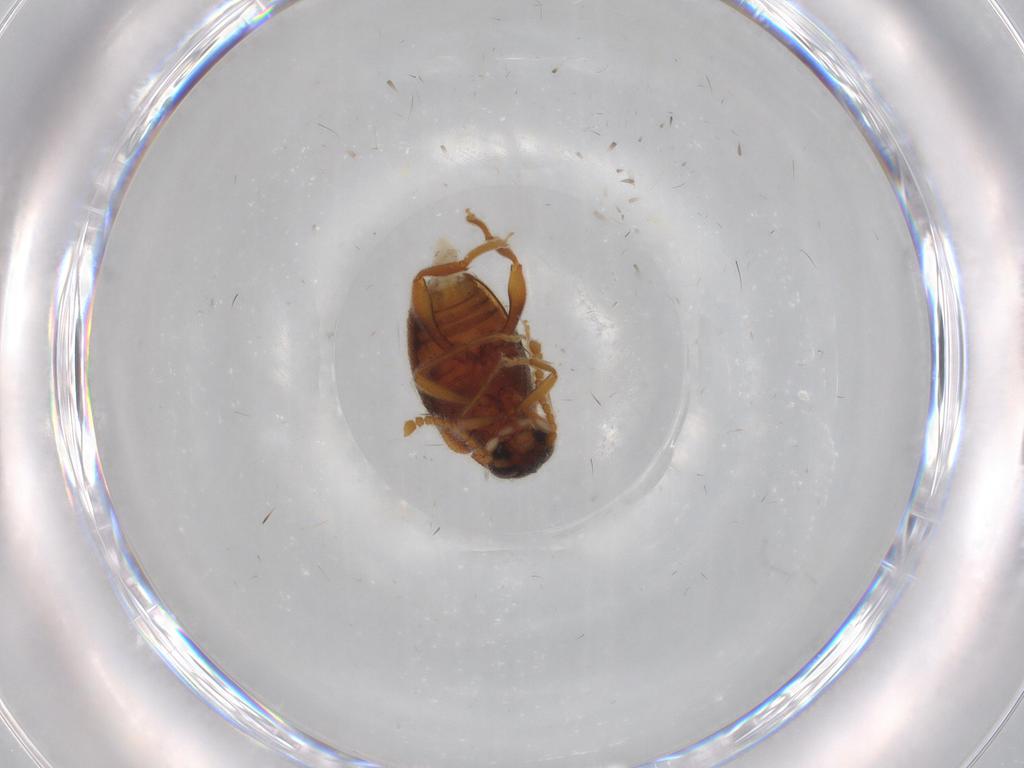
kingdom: Animalia
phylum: Arthropoda
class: Insecta
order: Coleoptera
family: Aderidae
